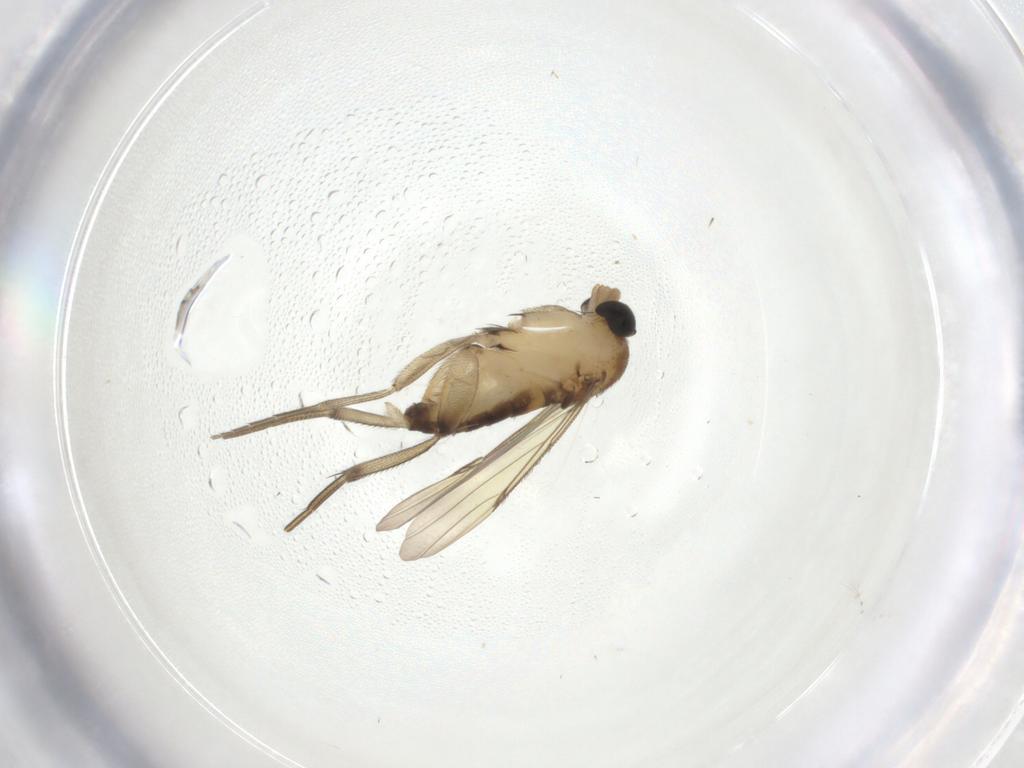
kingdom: Animalia
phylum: Arthropoda
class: Insecta
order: Diptera
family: Phoridae
